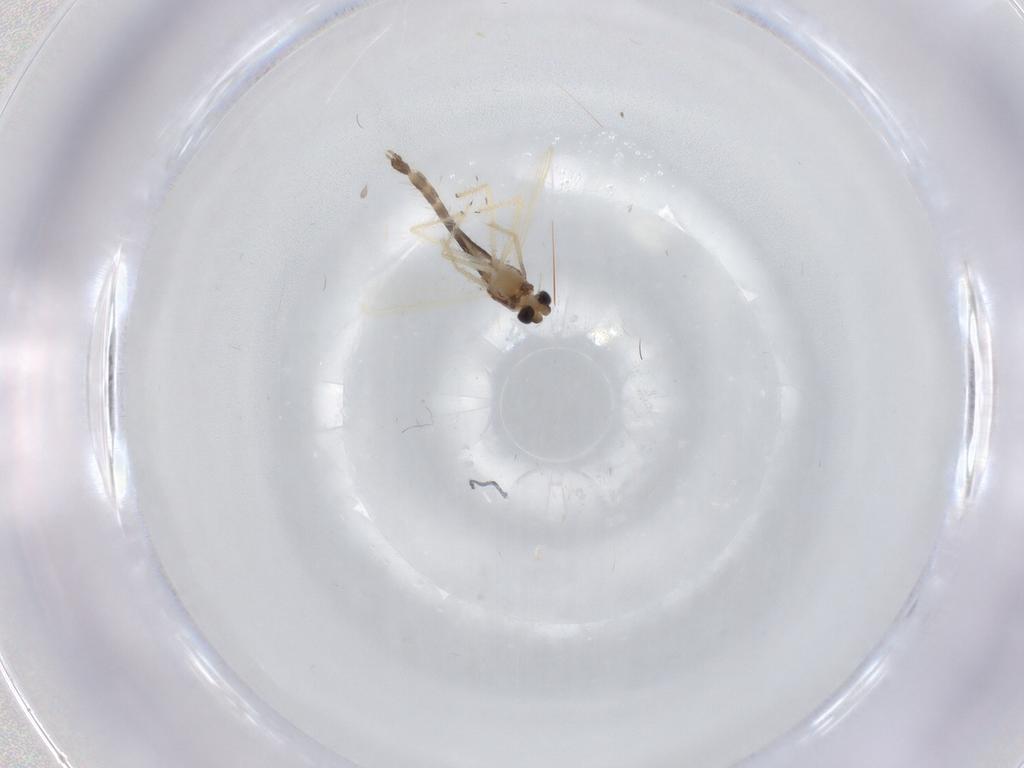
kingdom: Animalia
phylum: Arthropoda
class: Insecta
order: Diptera
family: Chironomidae
